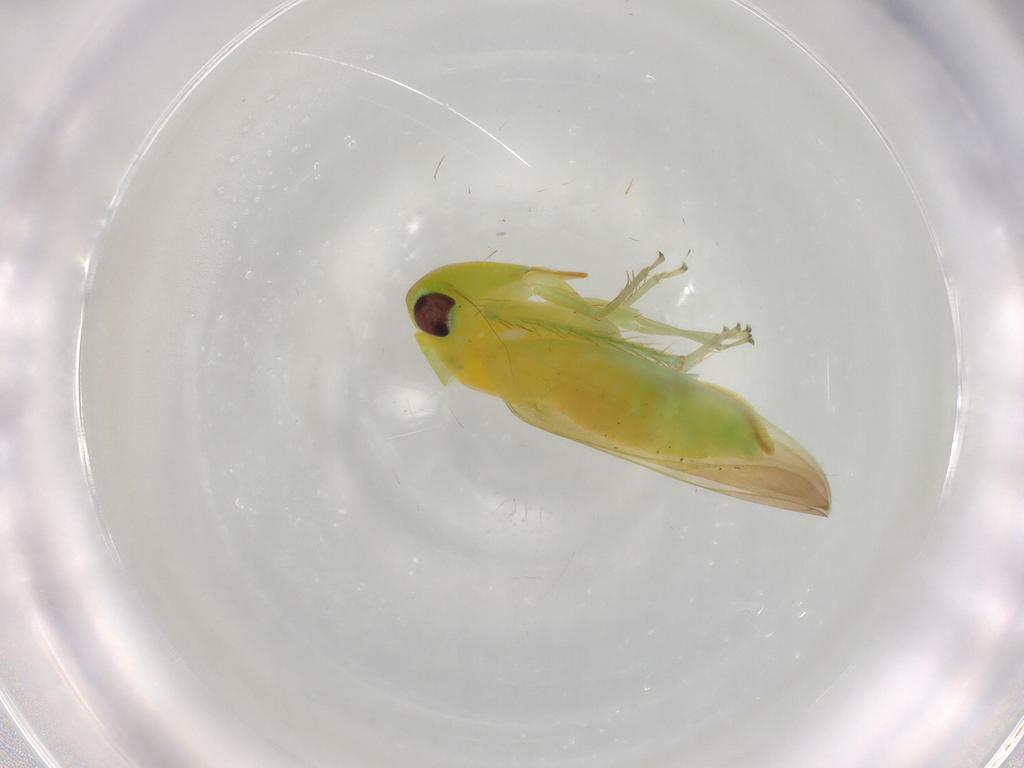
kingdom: Animalia
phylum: Arthropoda
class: Insecta
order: Hemiptera
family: Cicadellidae
